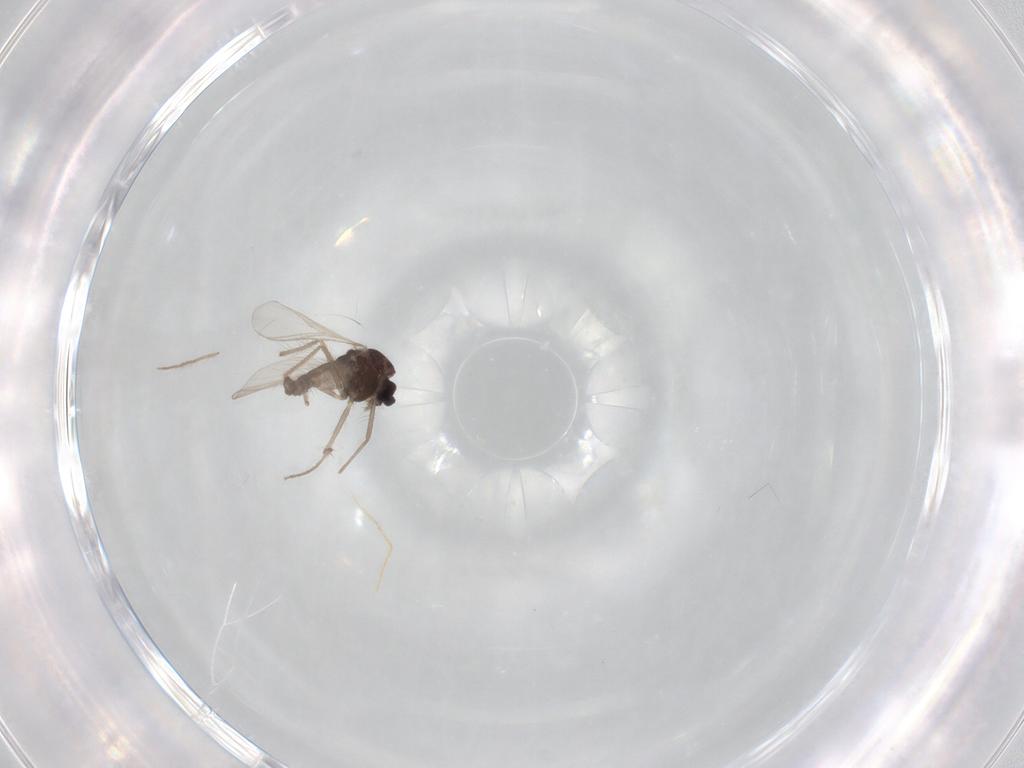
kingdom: Animalia
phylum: Arthropoda
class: Insecta
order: Diptera
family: Chironomidae
